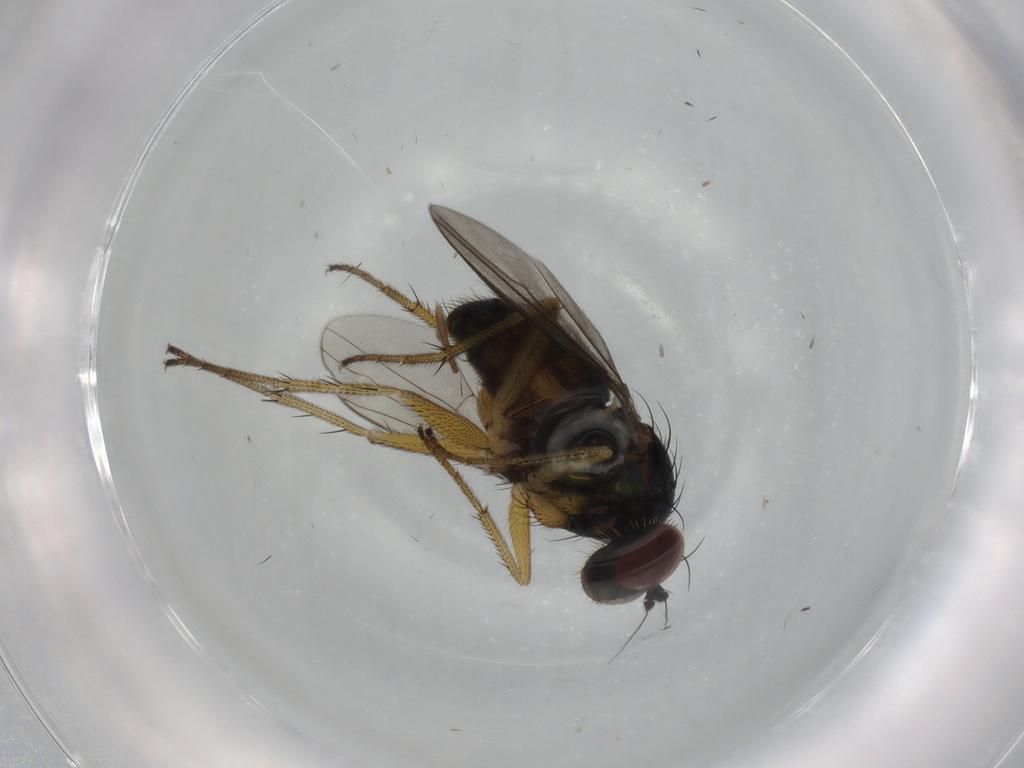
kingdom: Animalia
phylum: Arthropoda
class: Insecta
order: Diptera
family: Dolichopodidae
